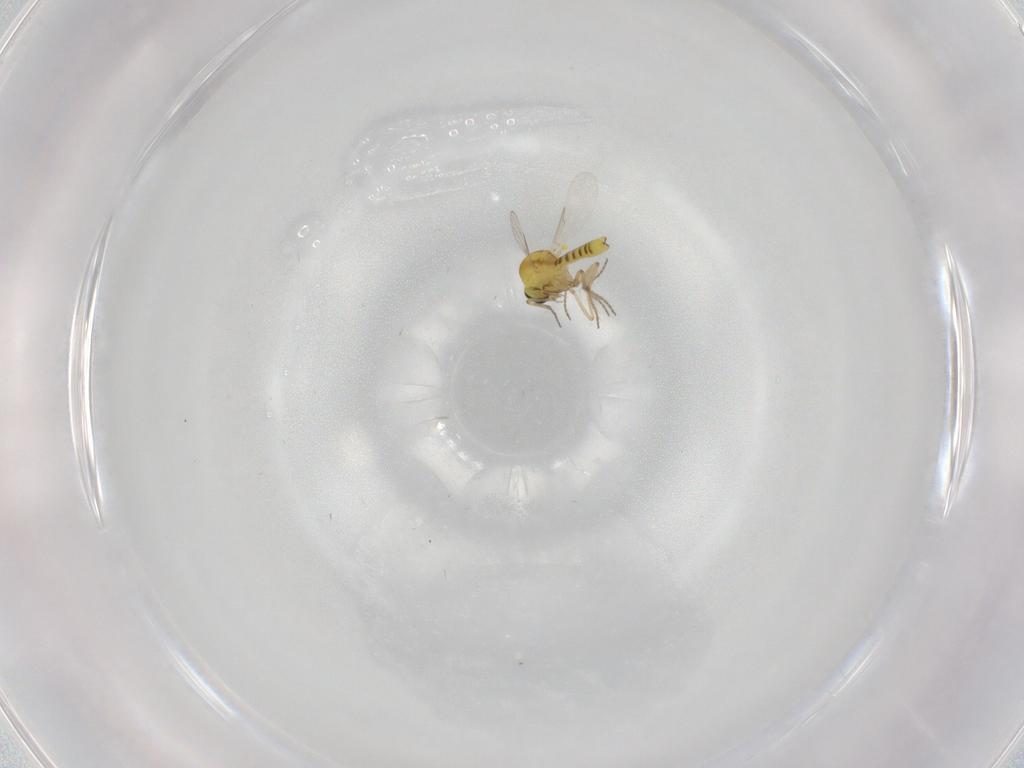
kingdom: Animalia
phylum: Arthropoda
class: Insecta
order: Diptera
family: Ceratopogonidae
